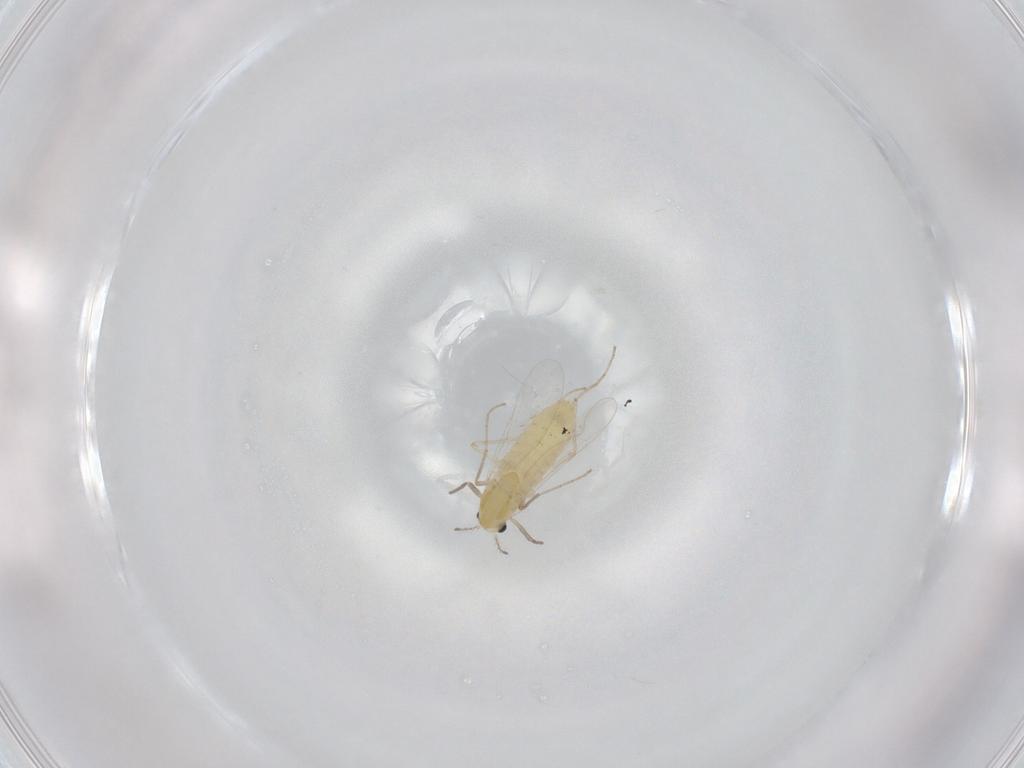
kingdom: Animalia
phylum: Arthropoda
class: Insecta
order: Diptera
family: Chironomidae
